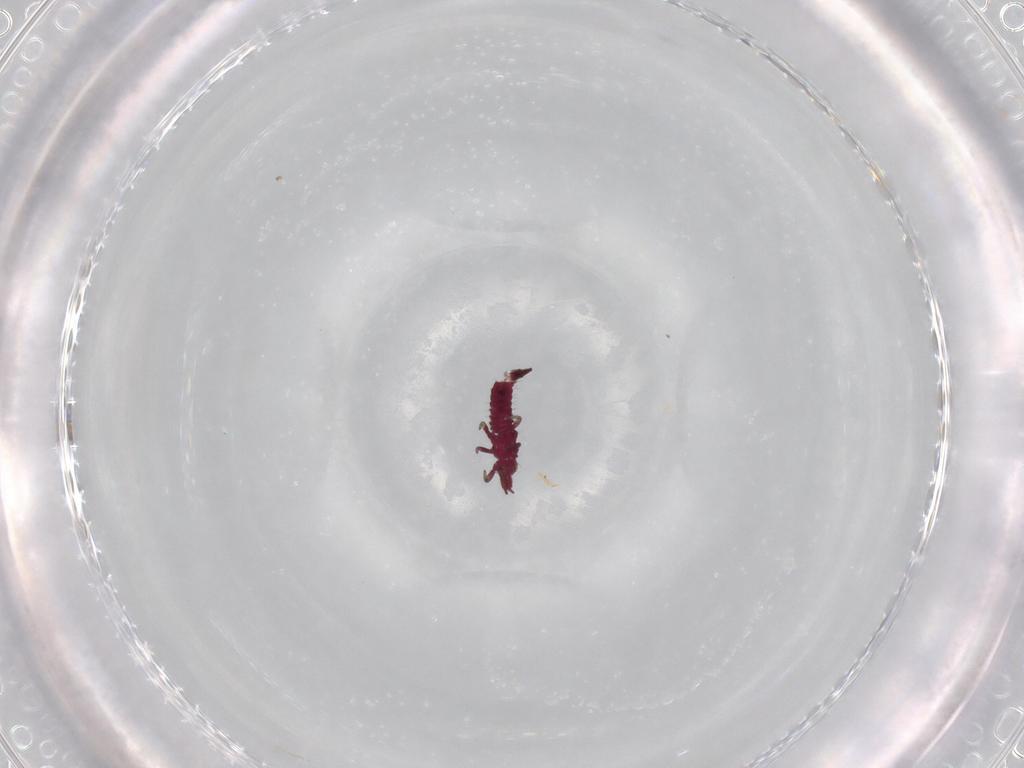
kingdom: Animalia
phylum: Arthropoda
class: Insecta
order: Thysanoptera
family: Phlaeothripidae
